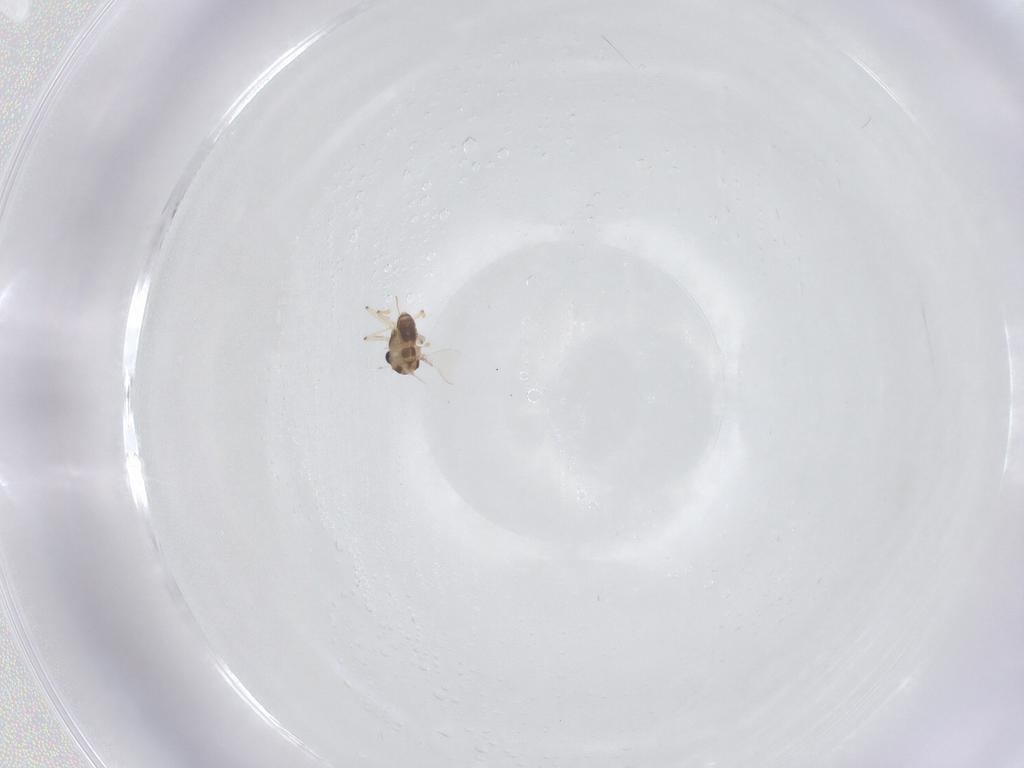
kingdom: Animalia
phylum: Arthropoda
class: Insecta
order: Diptera
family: Chironomidae
